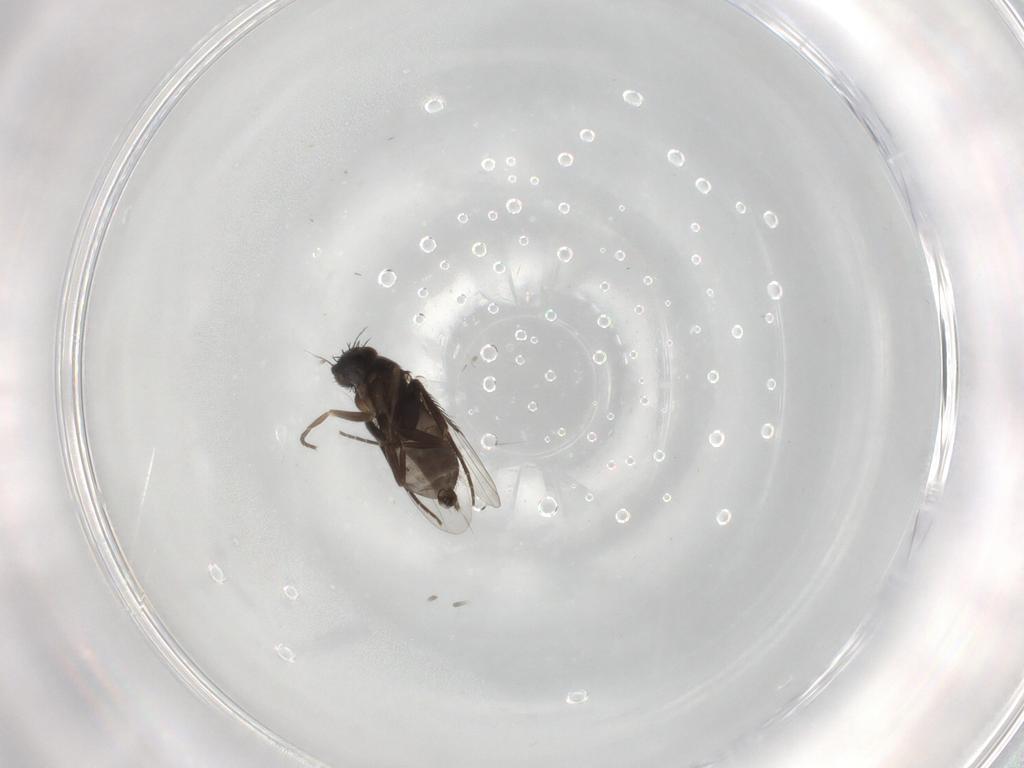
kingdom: Animalia
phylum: Arthropoda
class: Insecta
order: Diptera
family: Phoridae
